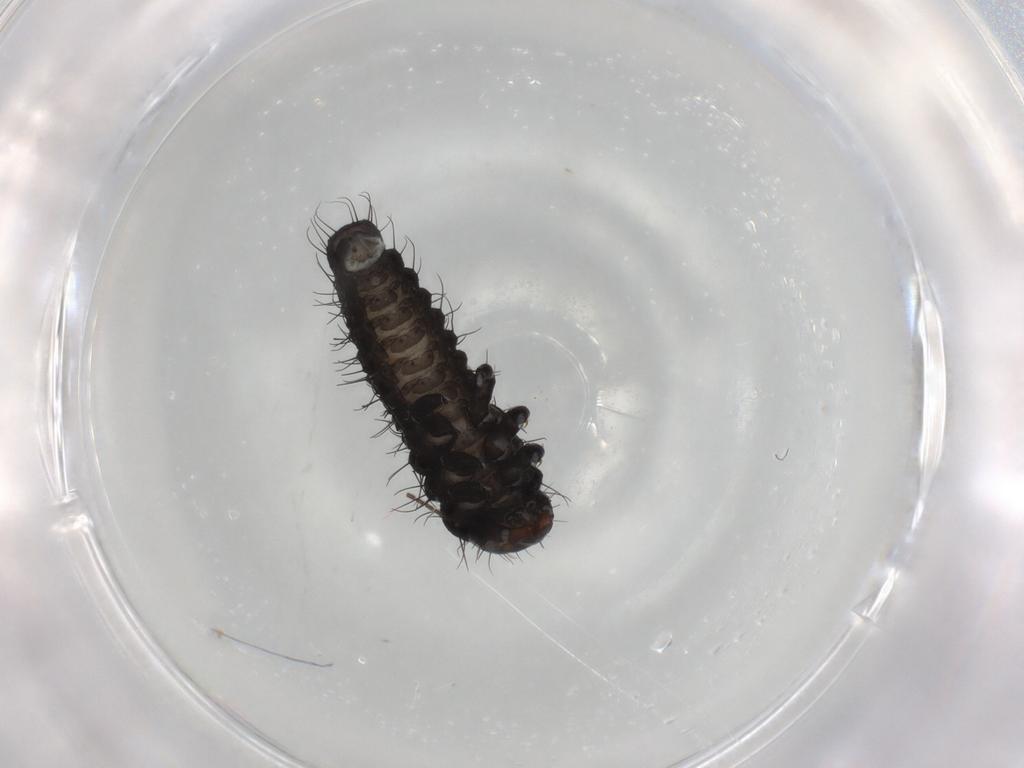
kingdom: Animalia
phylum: Arthropoda
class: Insecta
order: Coleoptera
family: Chrysomelidae
